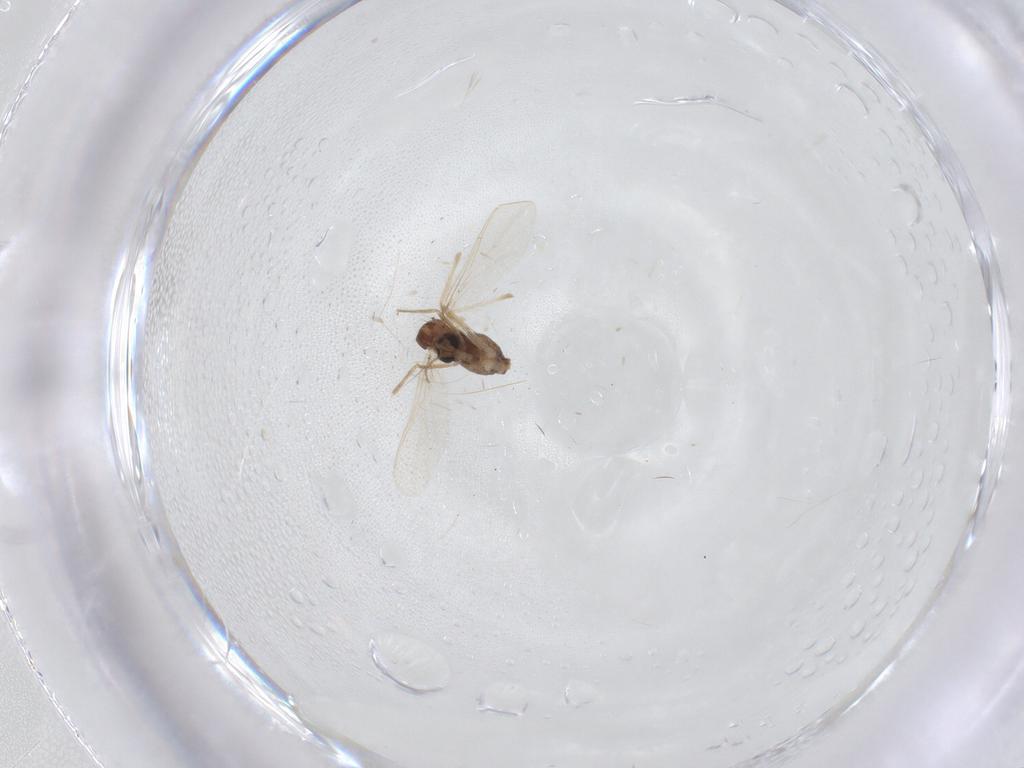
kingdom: Animalia
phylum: Arthropoda
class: Insecta
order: Diptera
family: Chironomidae
